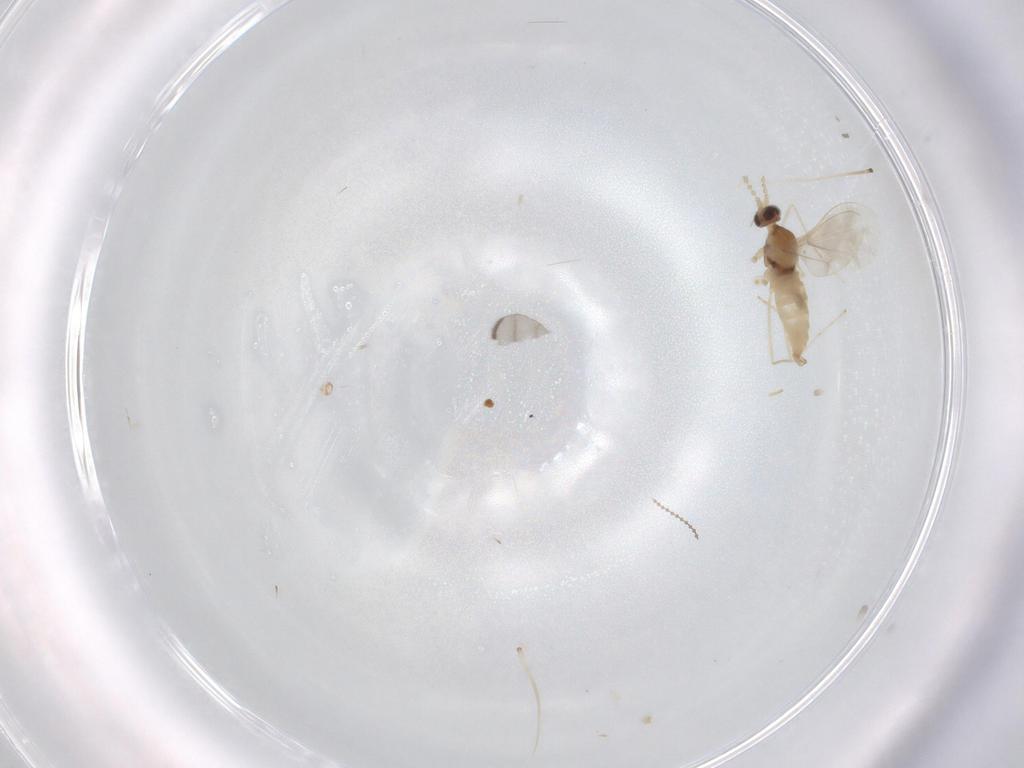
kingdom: Animalia
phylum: Arthropoda
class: Insecta
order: Diptera
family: Cecidomyiidae
